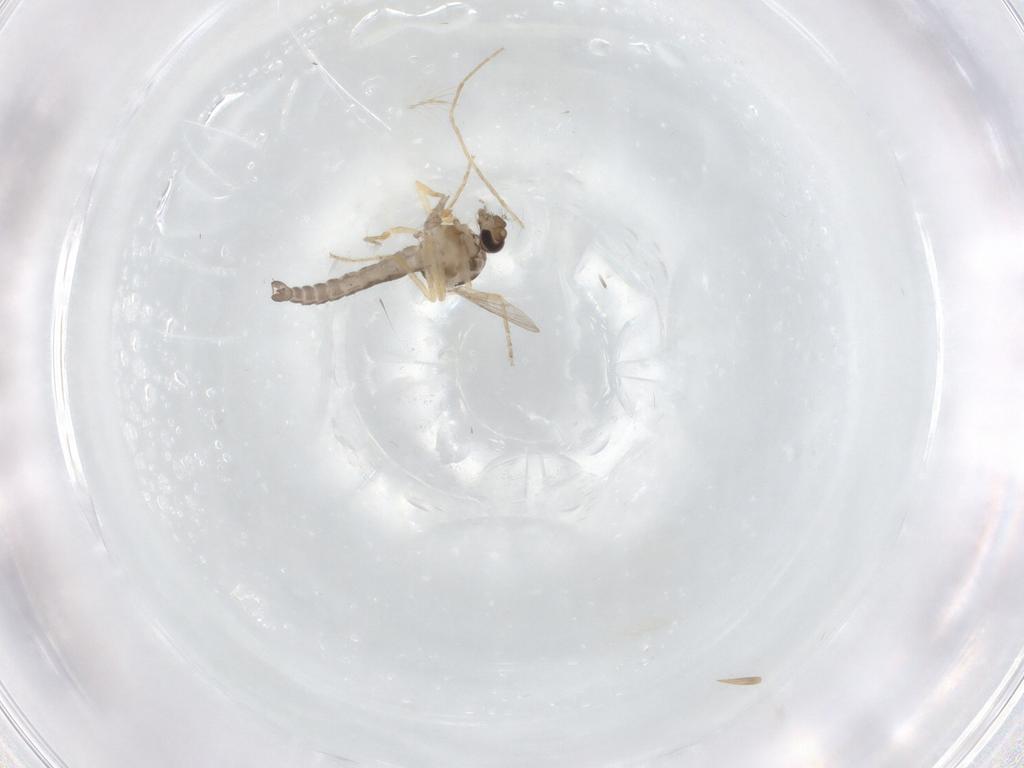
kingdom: Animalia
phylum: Arthropoda
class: Insecta
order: Diptera
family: Ceratopogonidae
